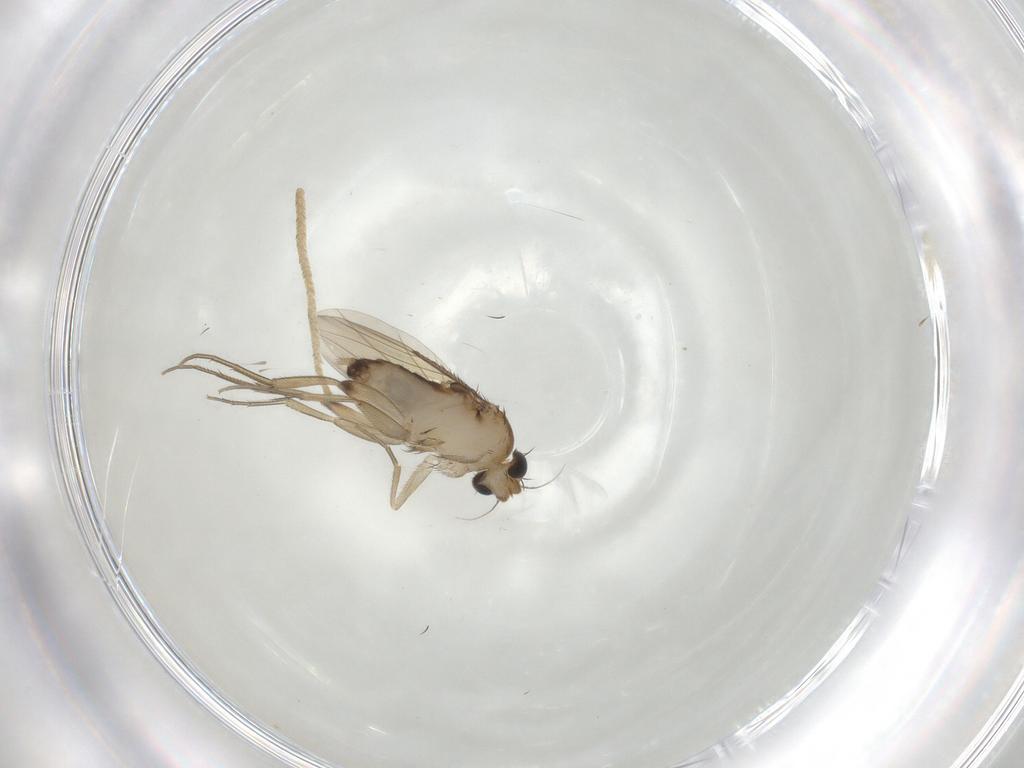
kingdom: Animalia
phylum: Arthropoda
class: Insecta
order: Diptera
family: Phoridae
